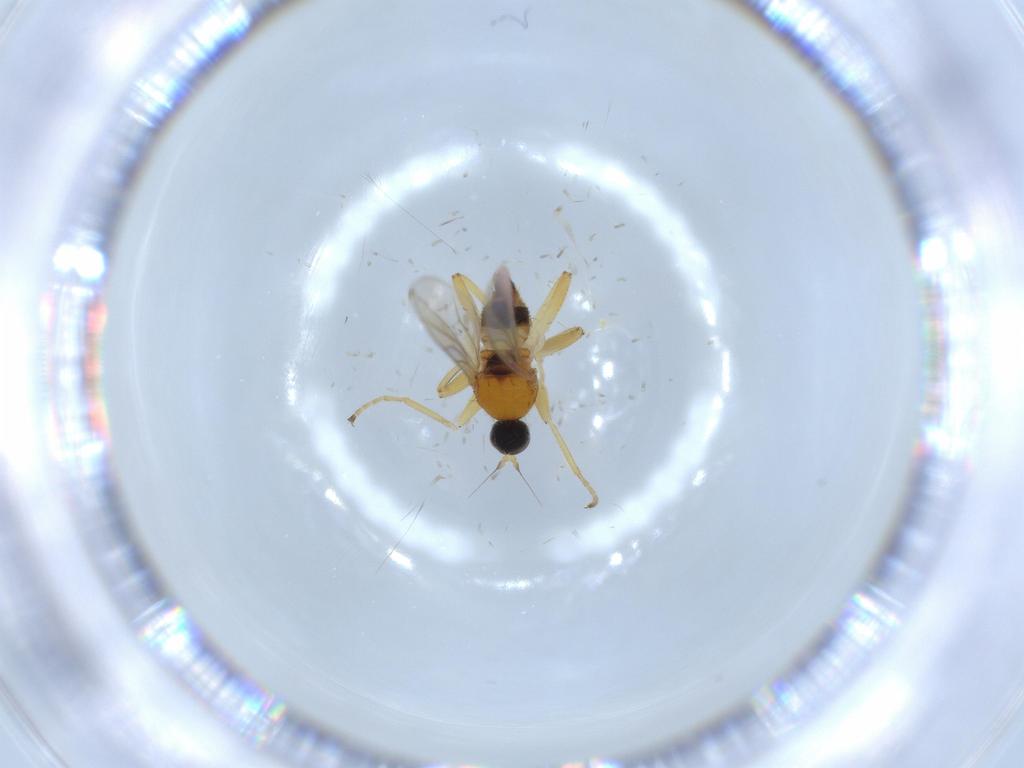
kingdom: Animalia
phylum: Arthropoda
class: Insecta
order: Diptera
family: Hybotidae
